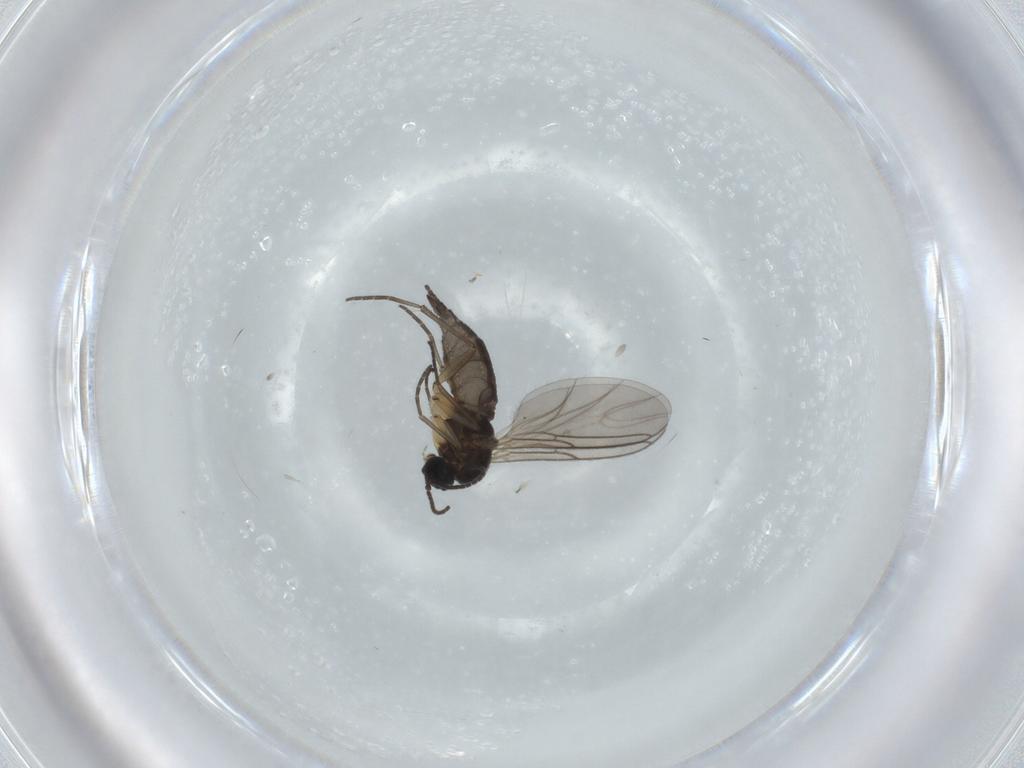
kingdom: Animalia
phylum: Arthropoda
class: Insecta
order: Diptera
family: Sciaridae
